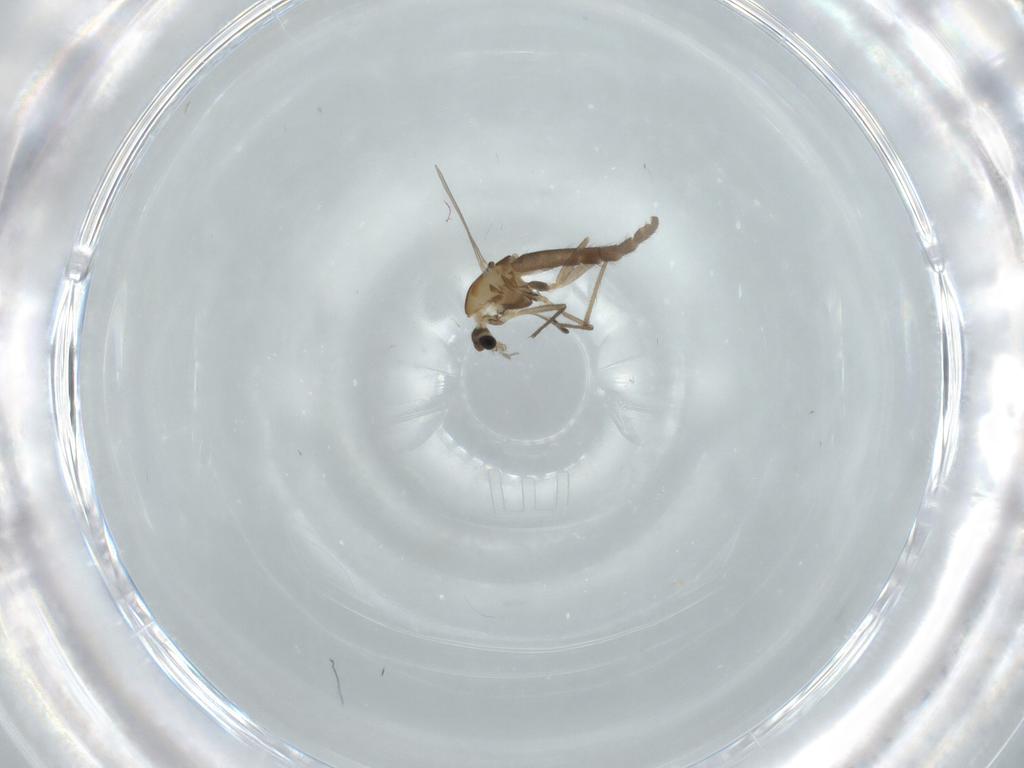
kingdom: Animalia
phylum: Arthropoda
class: Insecta
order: Diptera
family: Chironomidae
